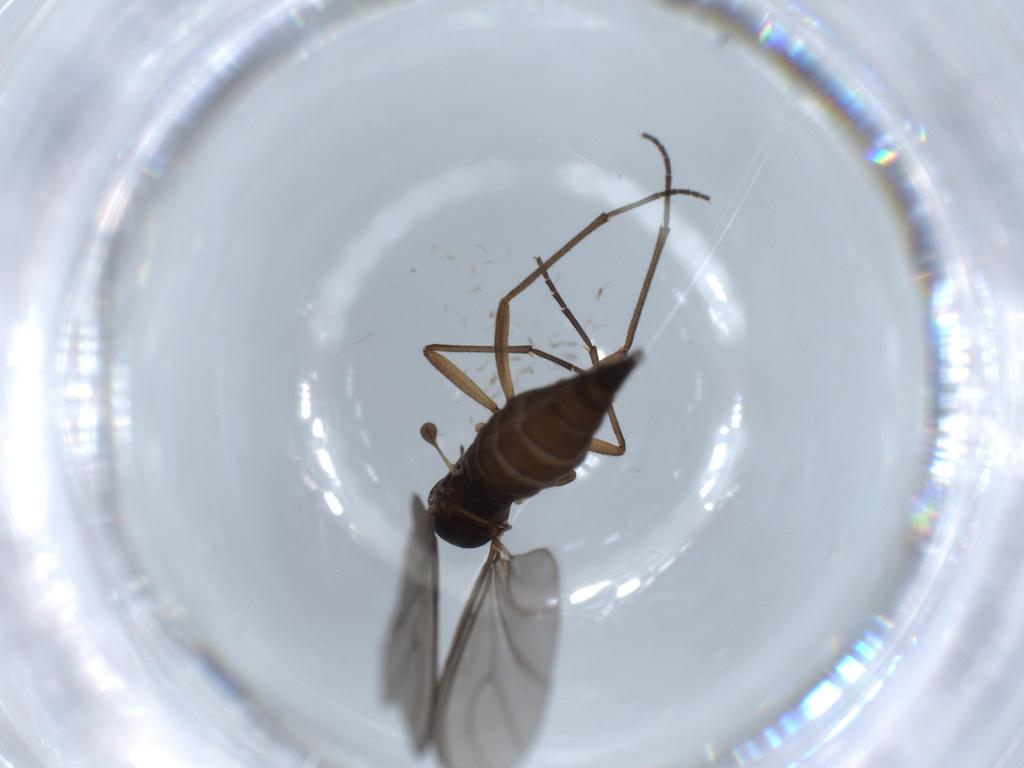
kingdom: Animalia
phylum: Arthropoda
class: Insecta
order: Diptera
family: Sciaridae
